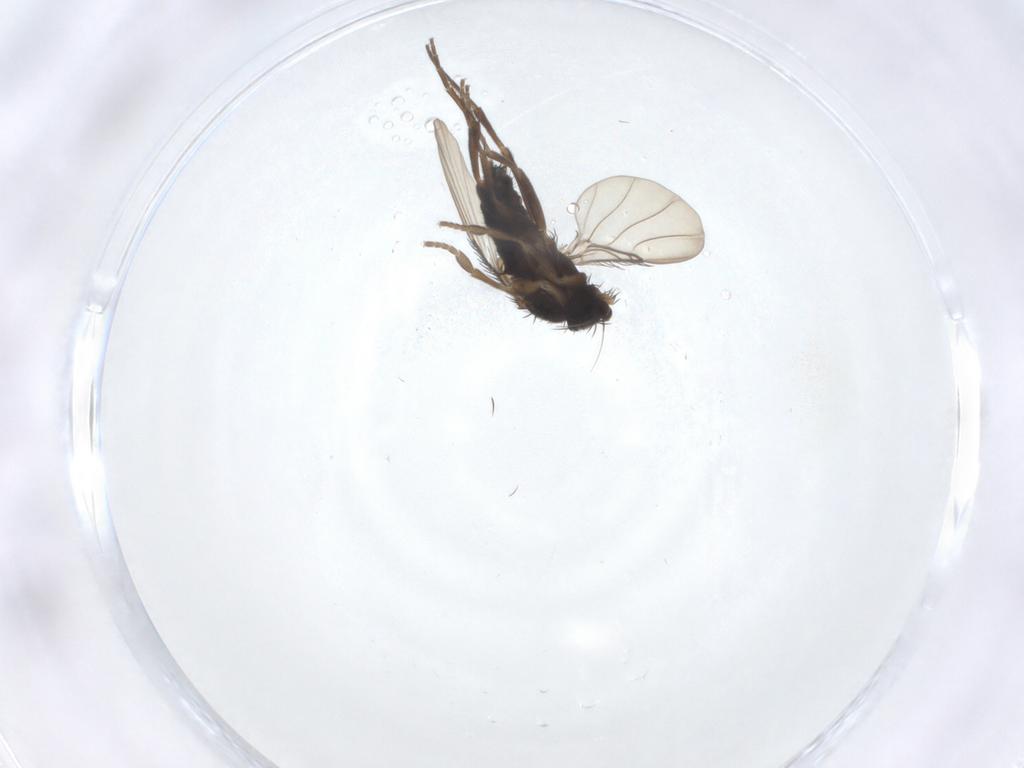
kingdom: Animalia
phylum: Arthropoda
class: Insecta
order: Diptera
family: Phoridae
